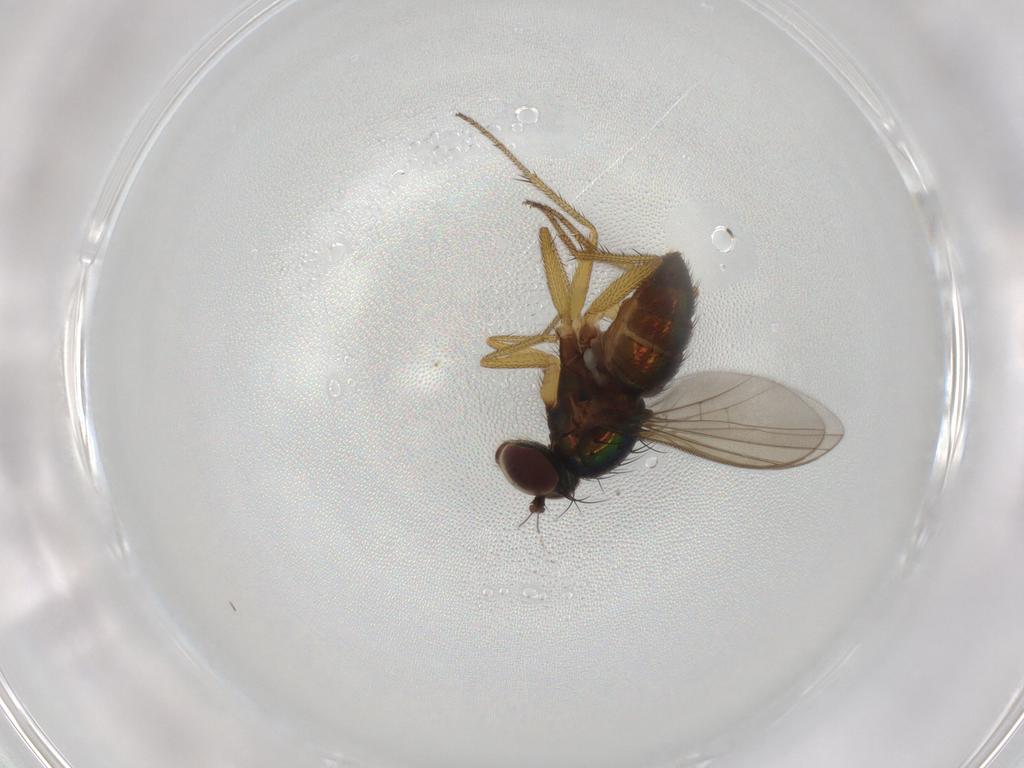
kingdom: Animalia
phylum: Arthropoda
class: Insecta
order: Diptera
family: Dolichopodidae
